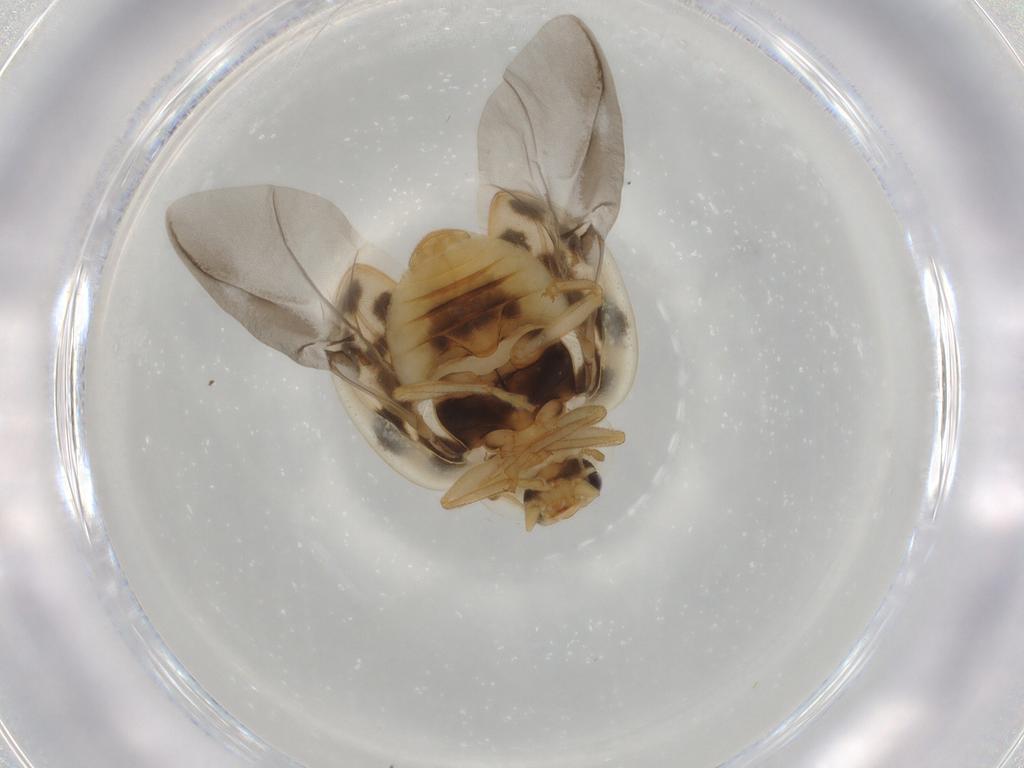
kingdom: Animalia
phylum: Arthropoda
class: Insecta
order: Coleoptera
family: Coccinellidae
